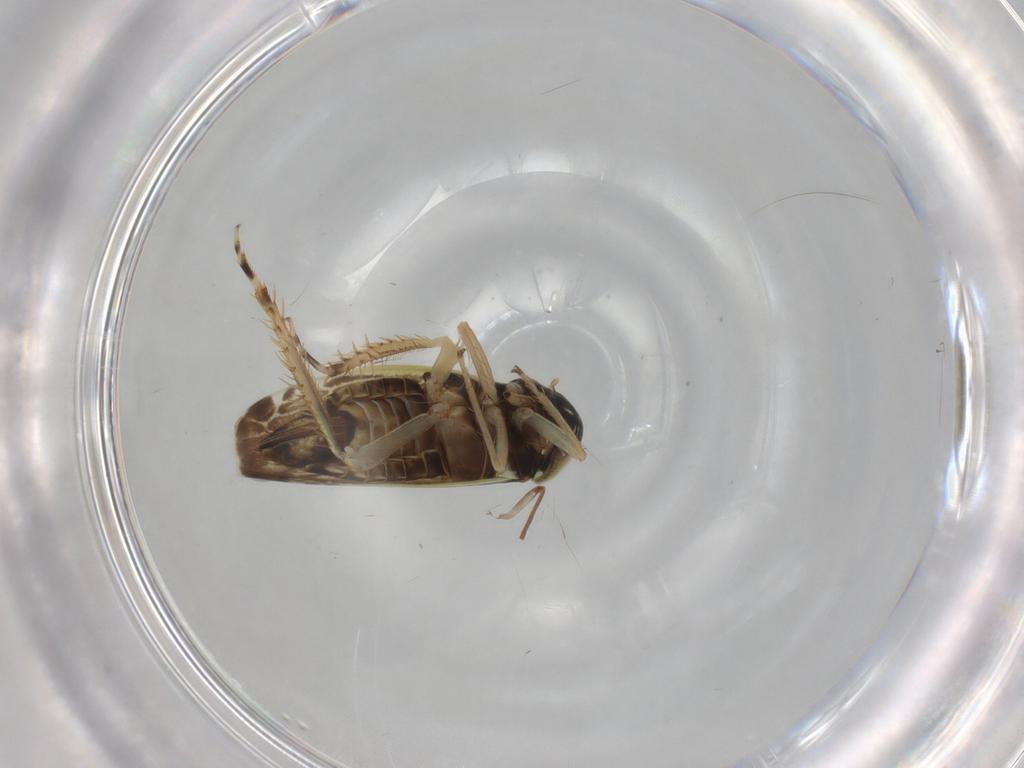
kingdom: Animalia
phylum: Arthropoda
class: Insecta
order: Hemiptera
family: Cicadellidae
